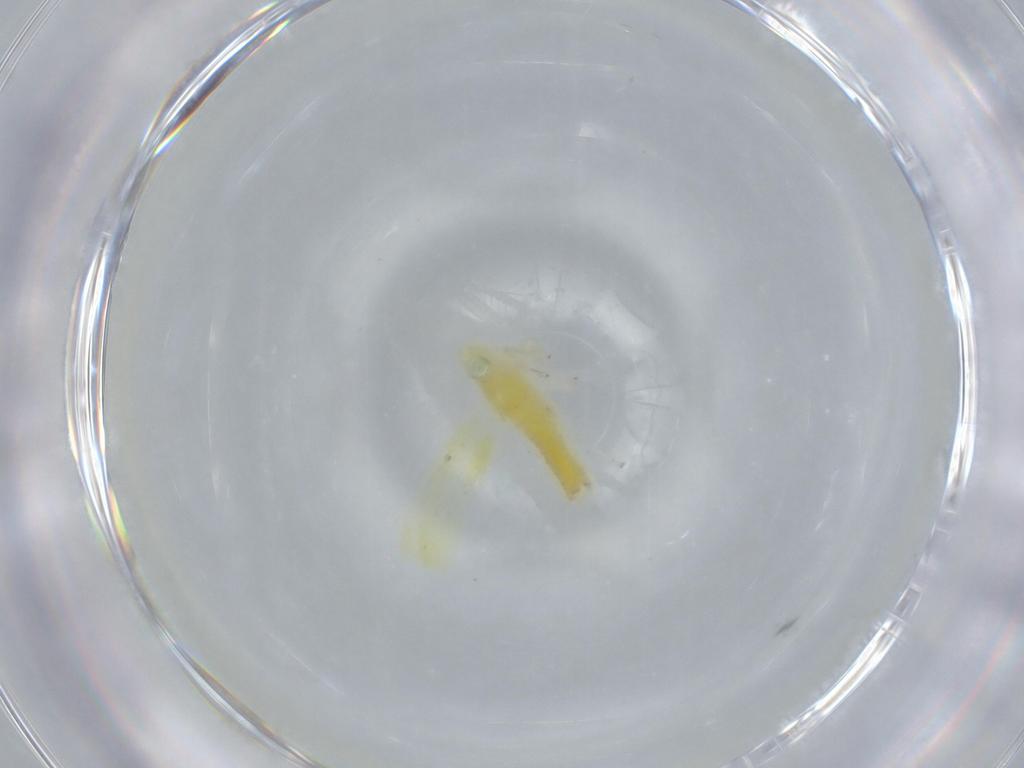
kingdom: Animalia
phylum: Arthropoda
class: Insecta
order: Hemiptera
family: Cicadellidae
